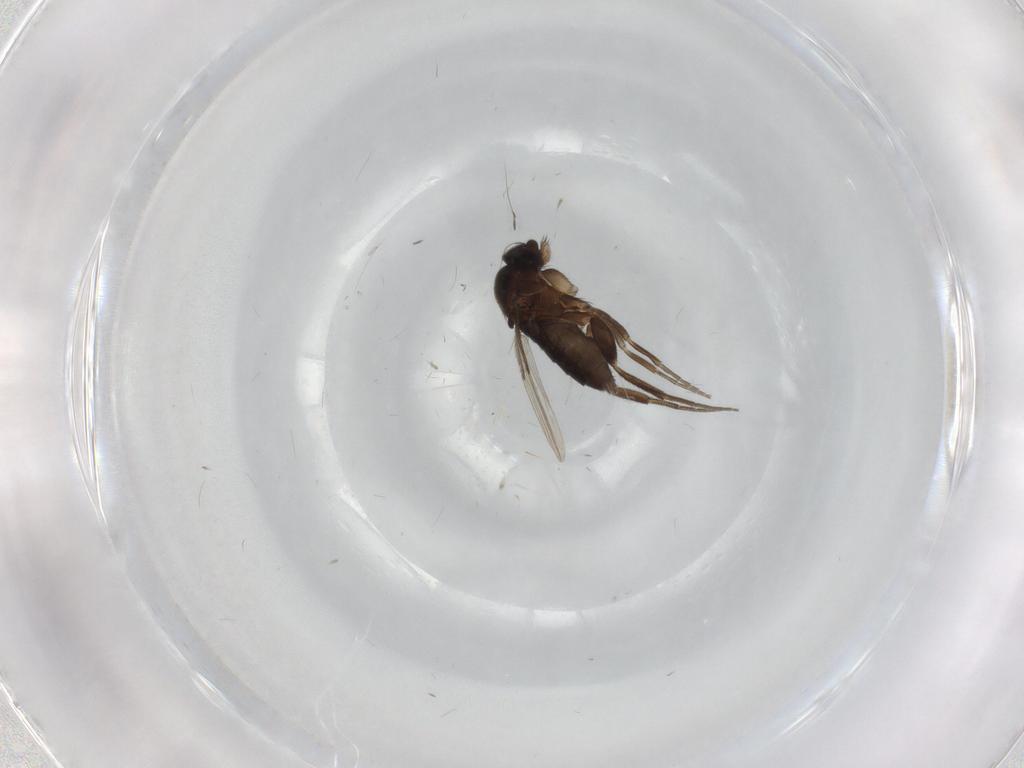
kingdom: Animalia
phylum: Arthropoda
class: Insecta
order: Diptera
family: Phoridae
